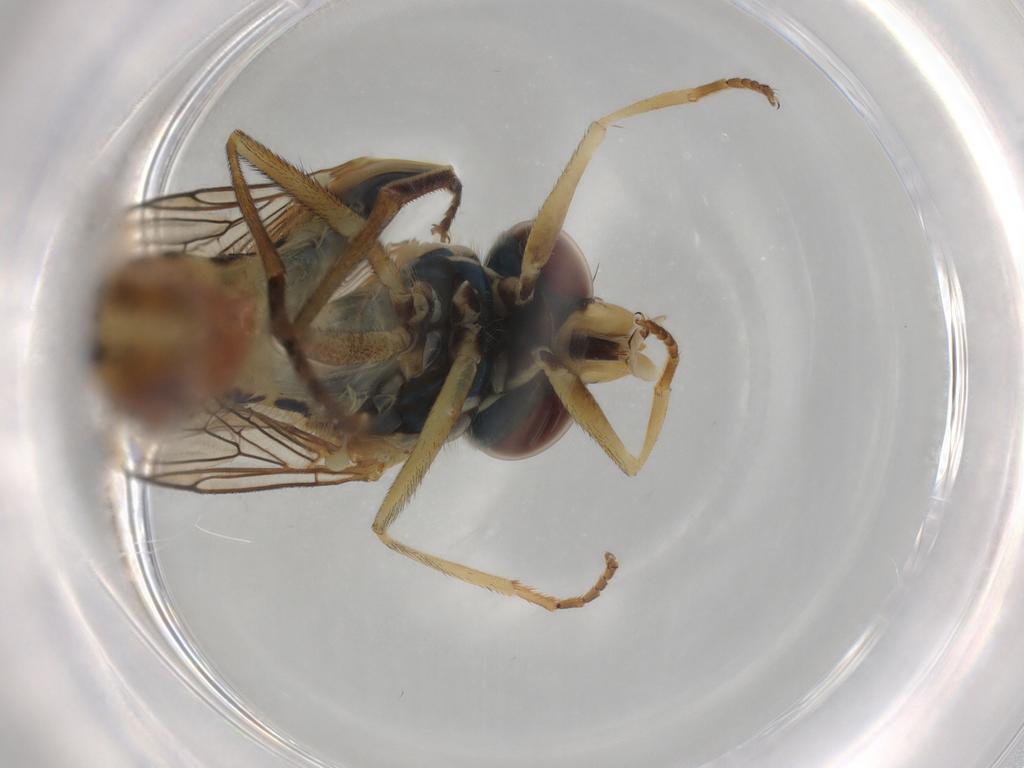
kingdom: Animalia
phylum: Arthropoda
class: Insecta
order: Diptera
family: Syrphidae
